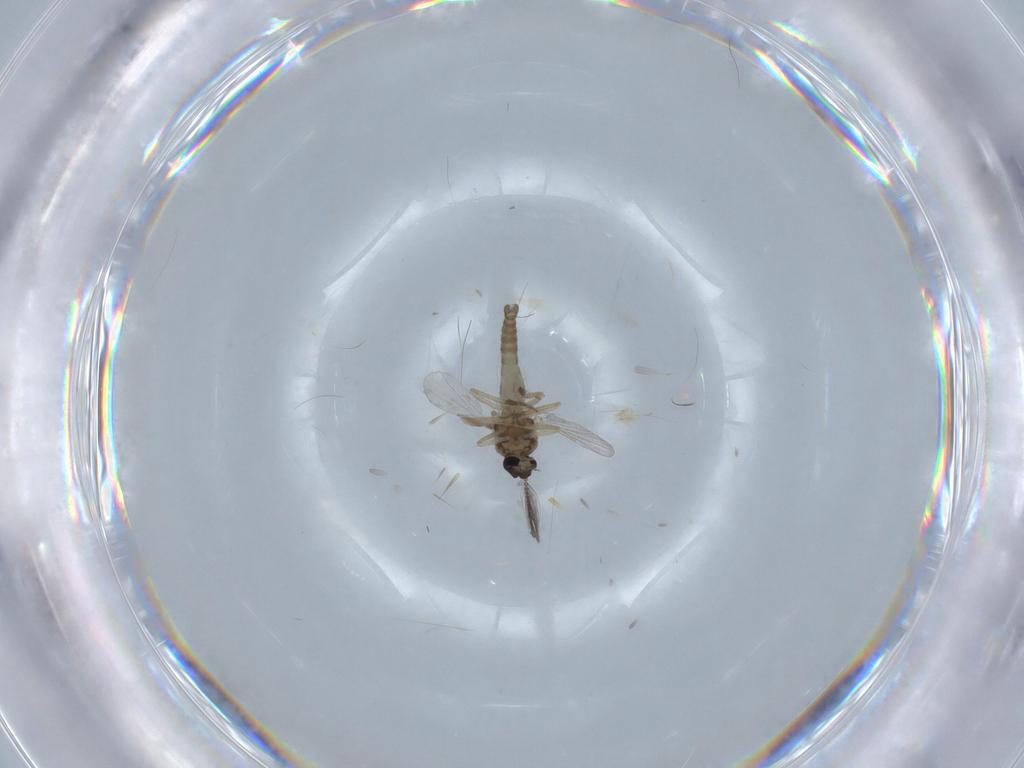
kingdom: Animalia
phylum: Arthropoda
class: Insecta
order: Diptera
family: Ceratopogonidae
